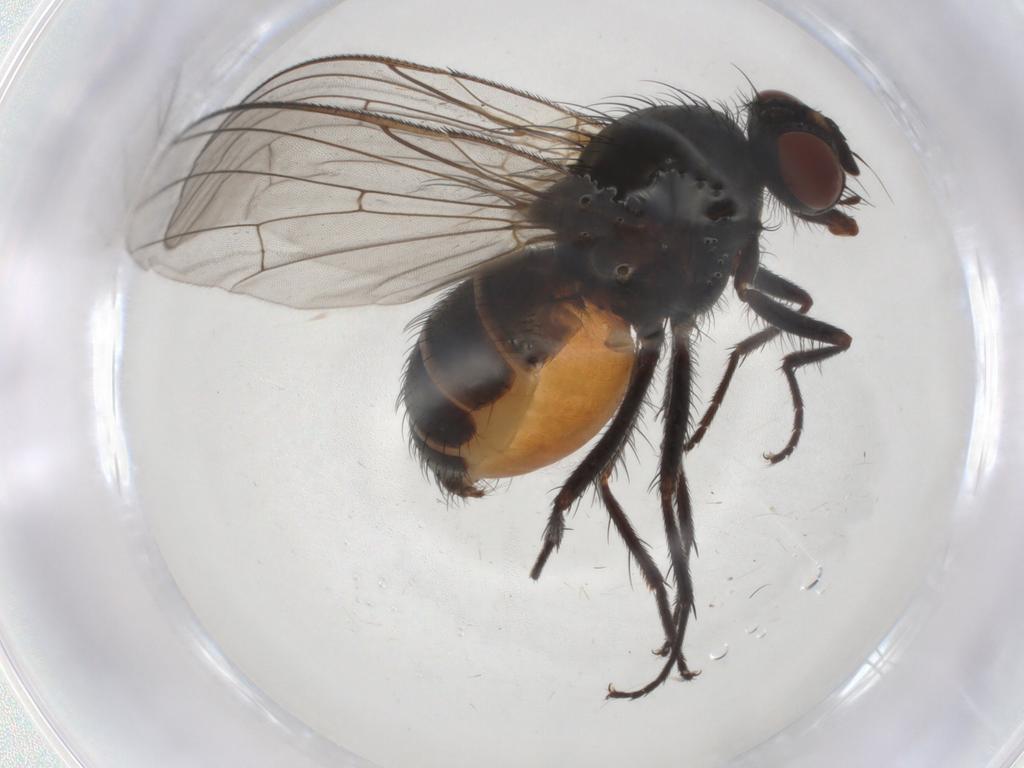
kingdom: Animalia
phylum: Arthropoda
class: Insecta
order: Diptera
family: Anthomyiidae
